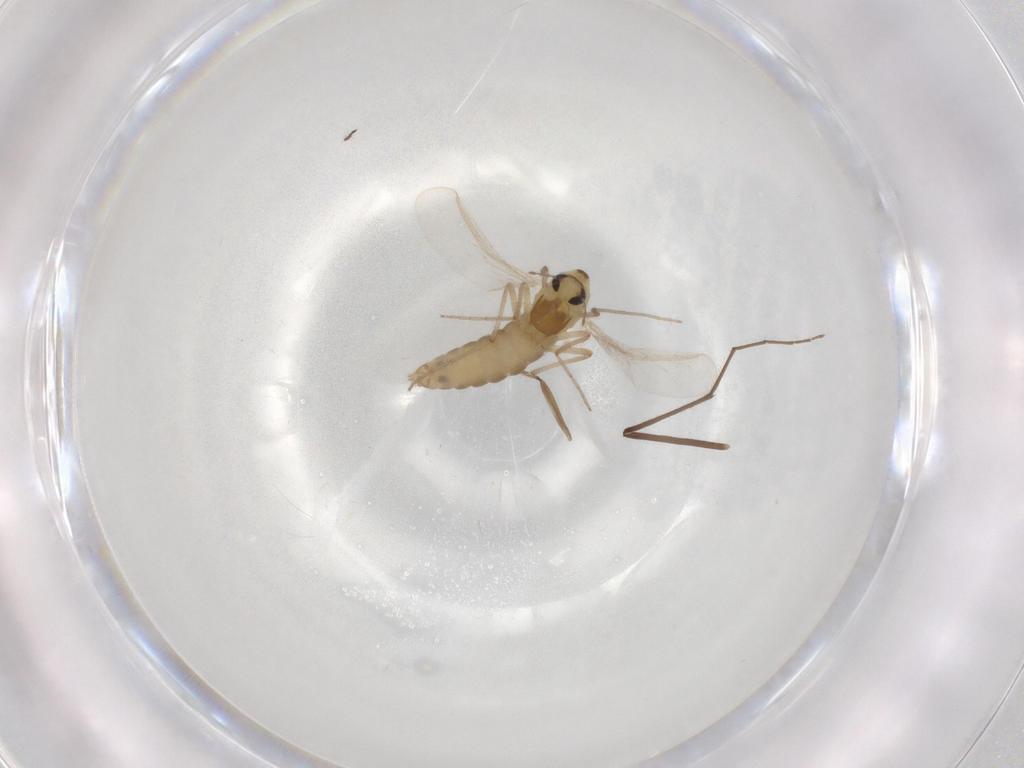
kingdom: Animalia
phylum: Arthropoda
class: Insecta
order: Diptera
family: Chironomidae
